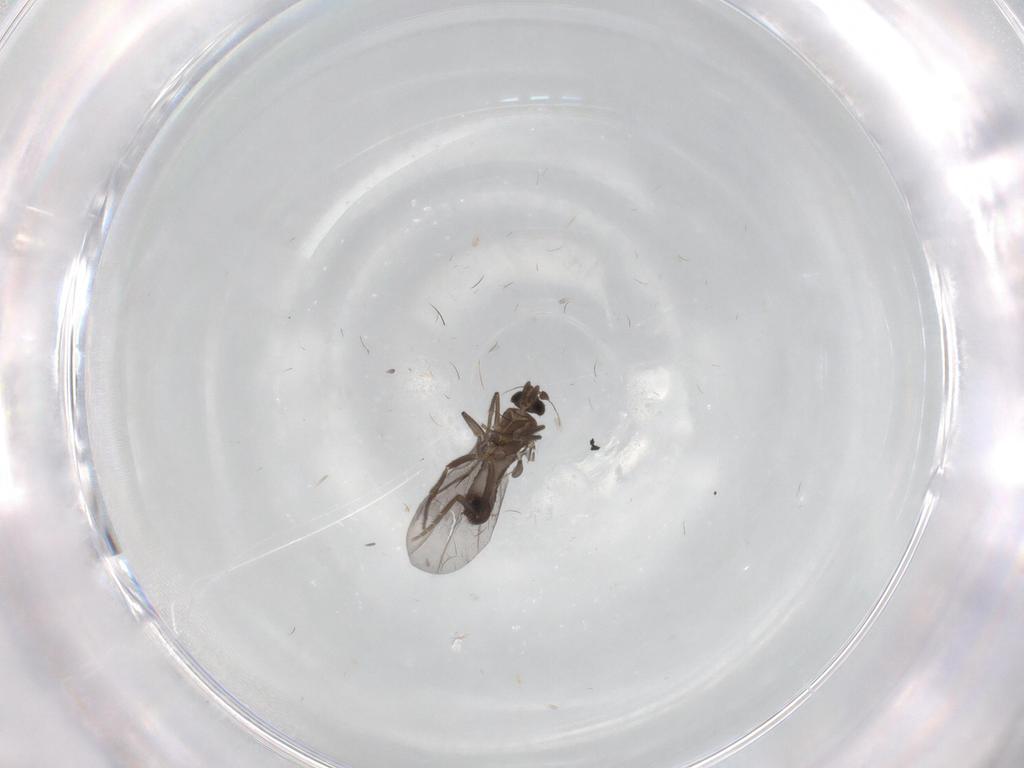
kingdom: Animalia
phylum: Arthropoda
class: Insecta
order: Diptera
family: Phoridae
